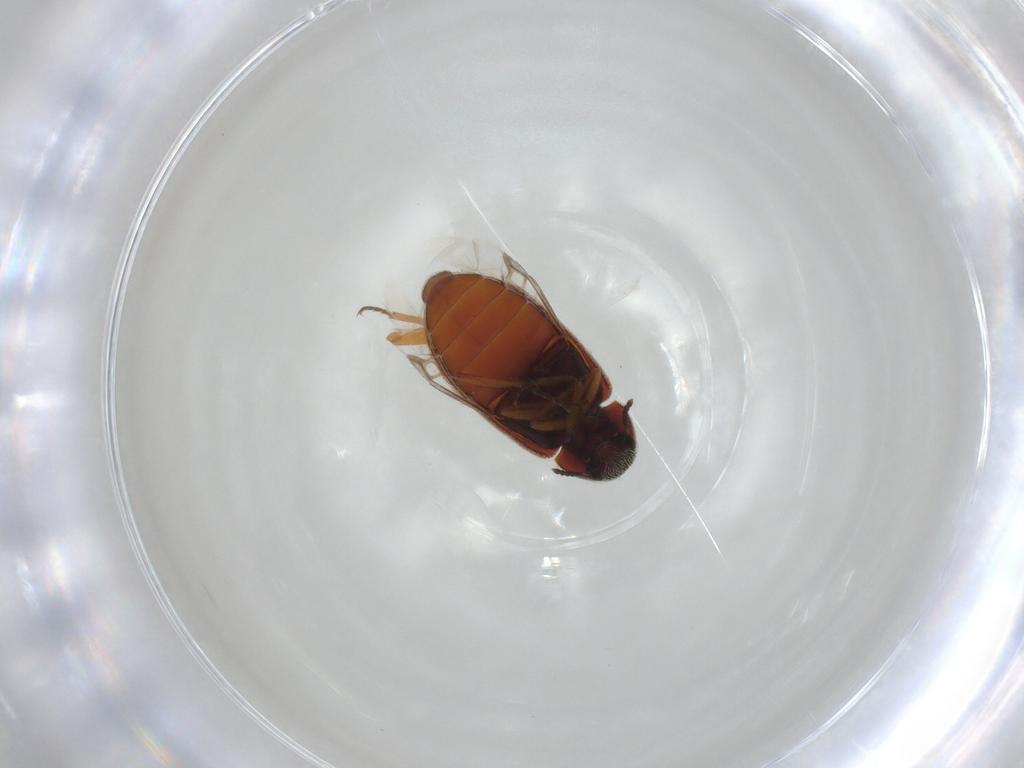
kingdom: Animalia
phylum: Arthropoda
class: Insecta
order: Coleoptera
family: Rhadalidae
